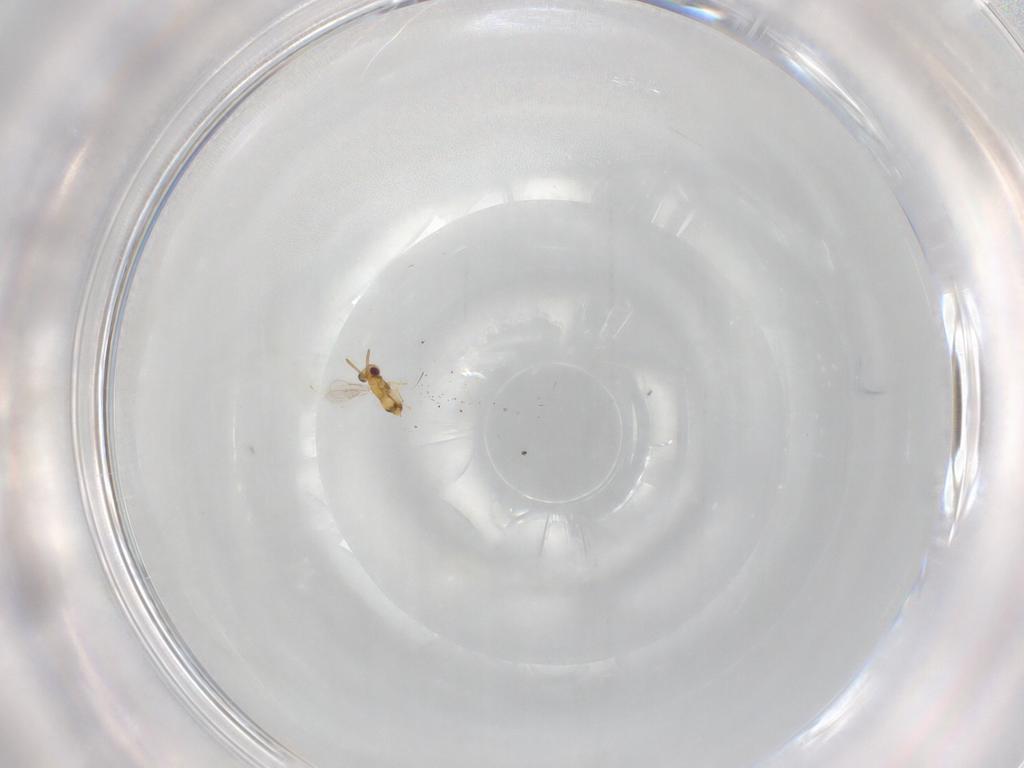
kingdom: Animalia
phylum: Arthropoda
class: Insecta
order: Hymenoptera
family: Aphelinidae
